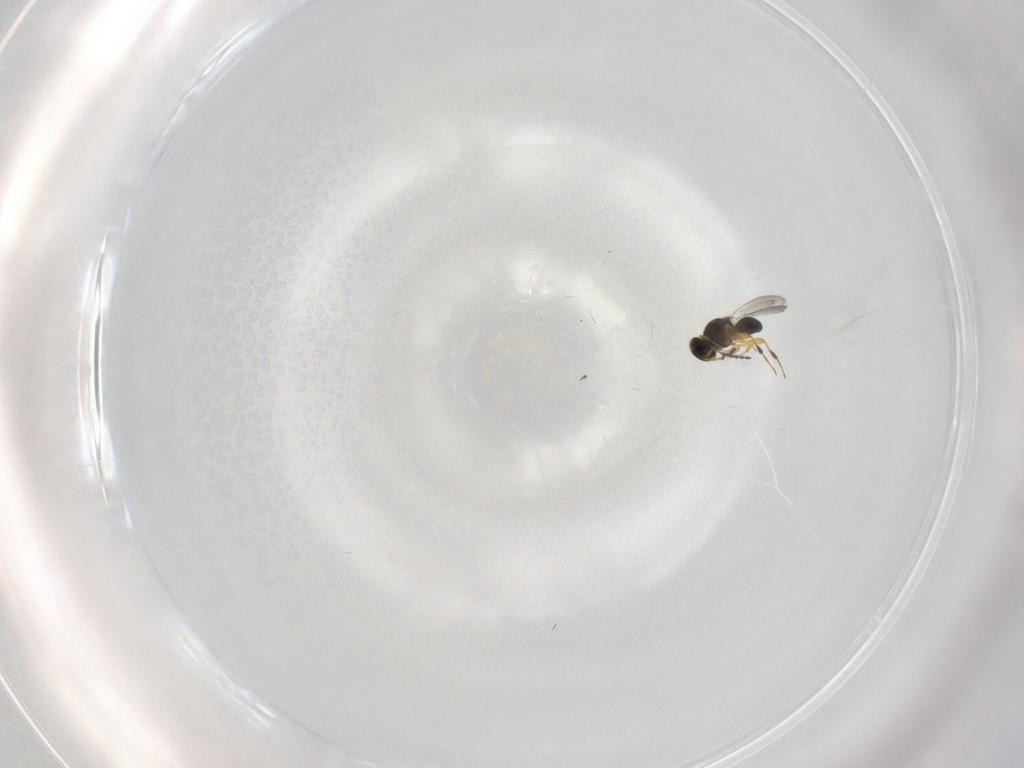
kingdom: Animalia
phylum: Arthropoda
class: Insecta
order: Hymenoptera
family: Platygastridae
